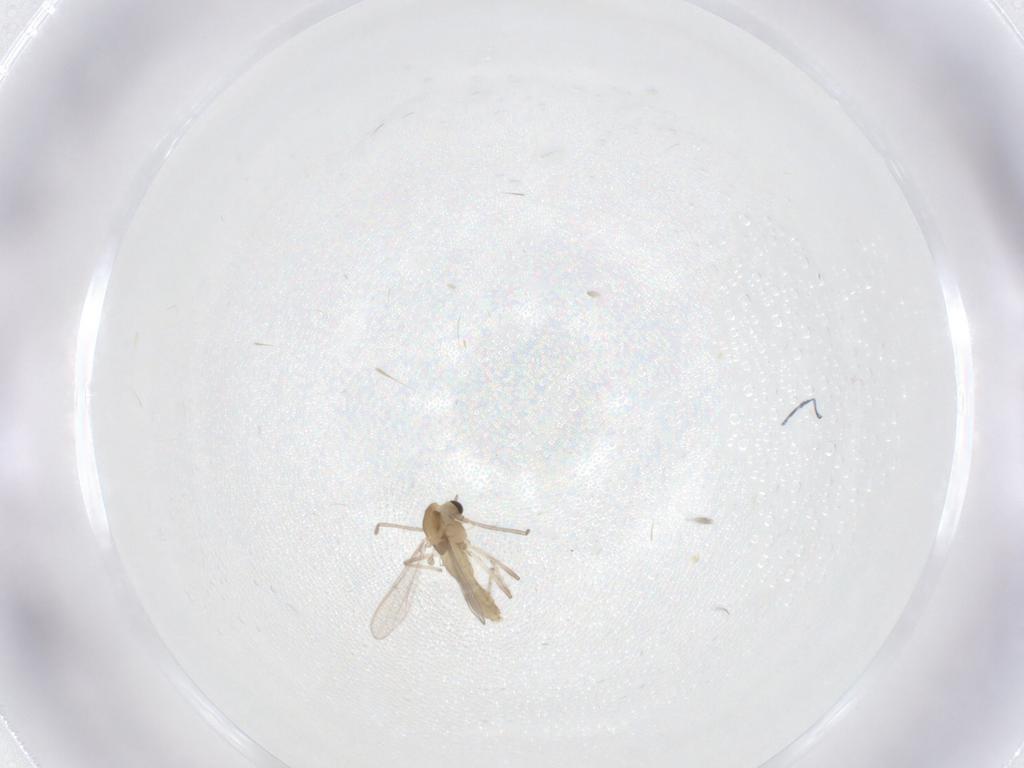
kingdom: Animalia
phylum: Arthropoda
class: Insecta
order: Diptera
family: Chironomidae
